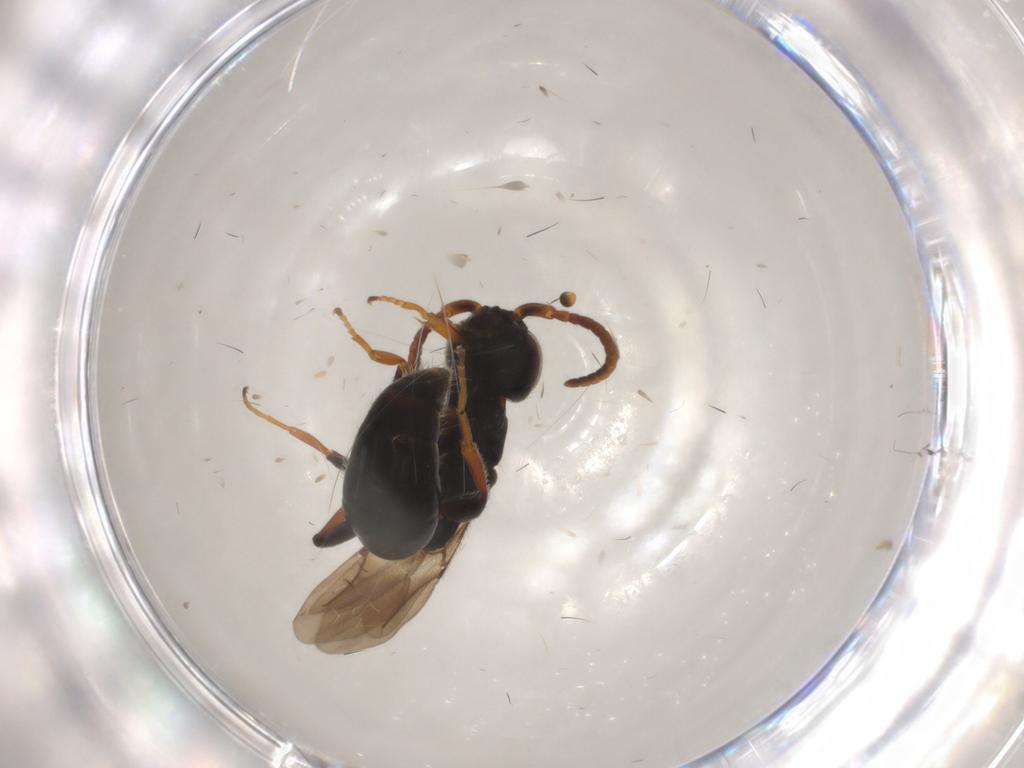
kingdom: Animalia
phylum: Arthropoda
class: Insecta
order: Hymenoptera
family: Bethylidae
